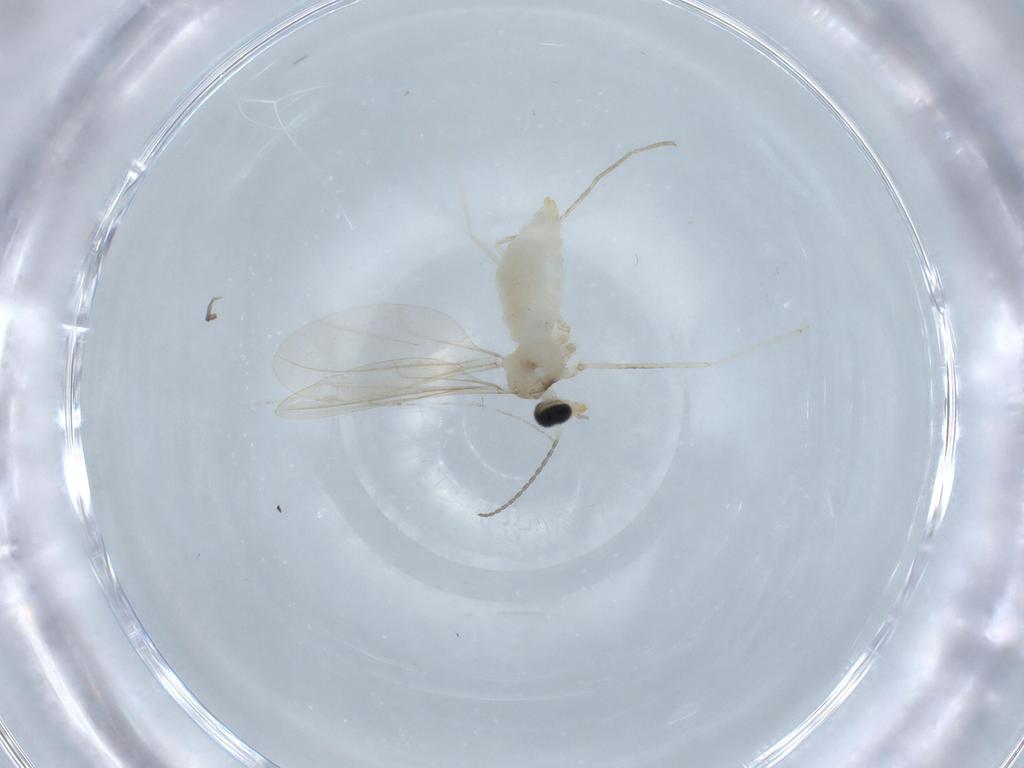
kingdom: Animalia
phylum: Arthropoda
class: Insecta
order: Diptera
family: Cecidomyiidae
